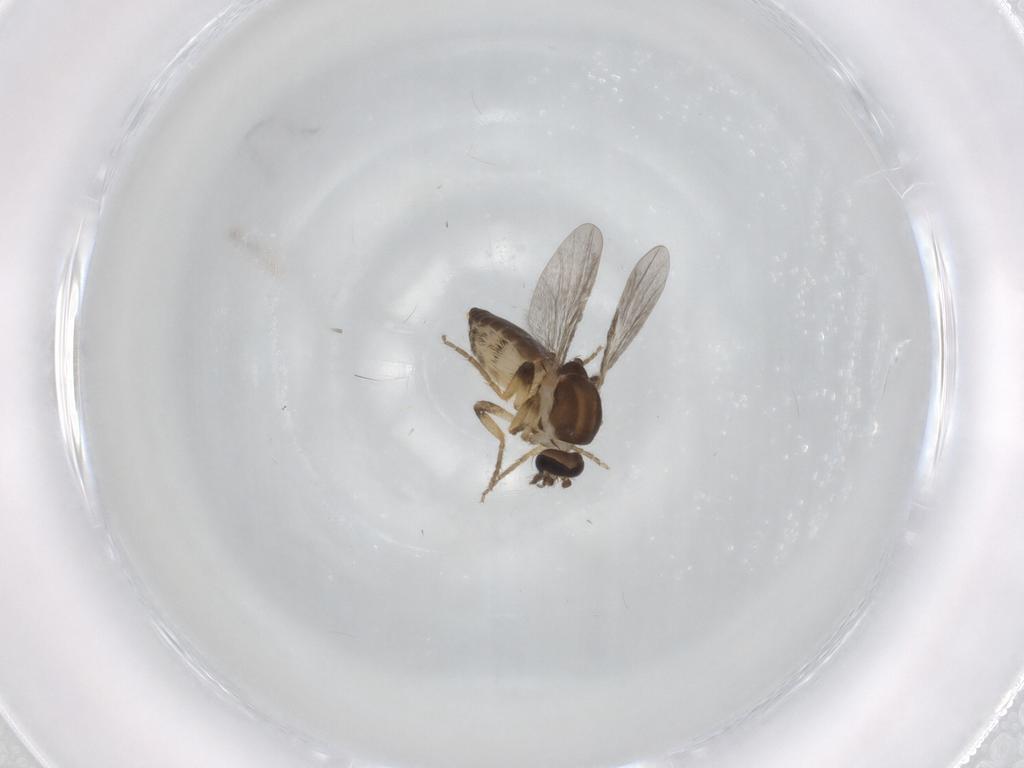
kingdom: Animalia
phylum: Arthropoda
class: Insecta
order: Diptera
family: Ceratopogonidae
